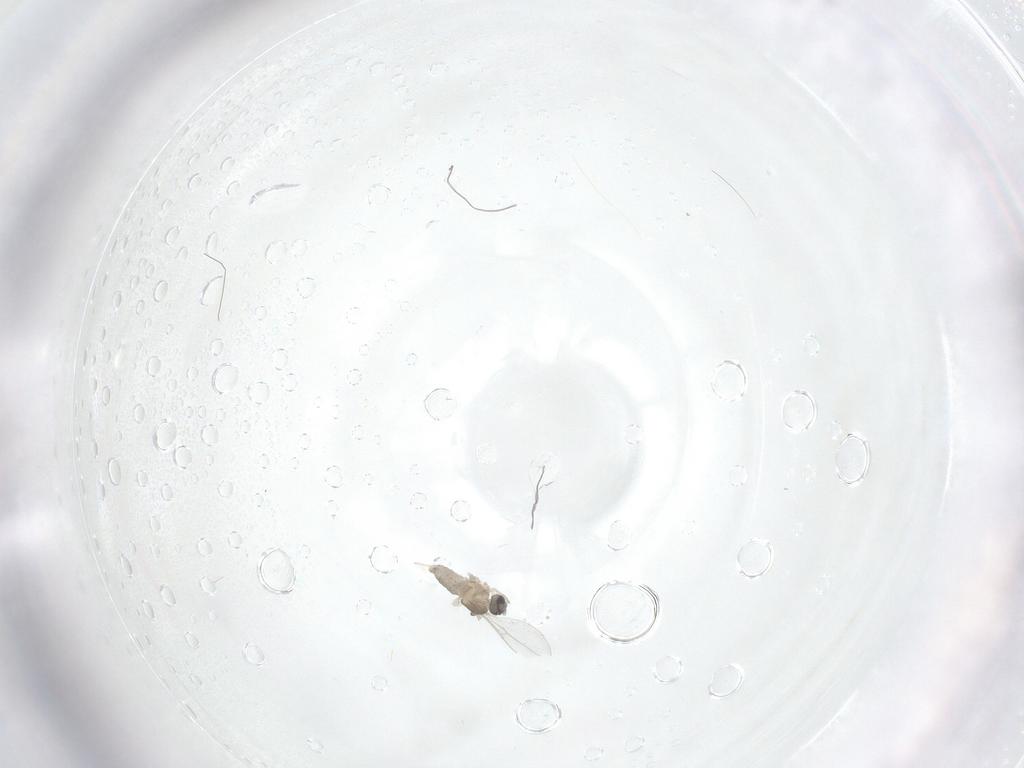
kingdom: Animalia
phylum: Arthropoda
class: Insecta
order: Diptera
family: Cecidomyiidae
